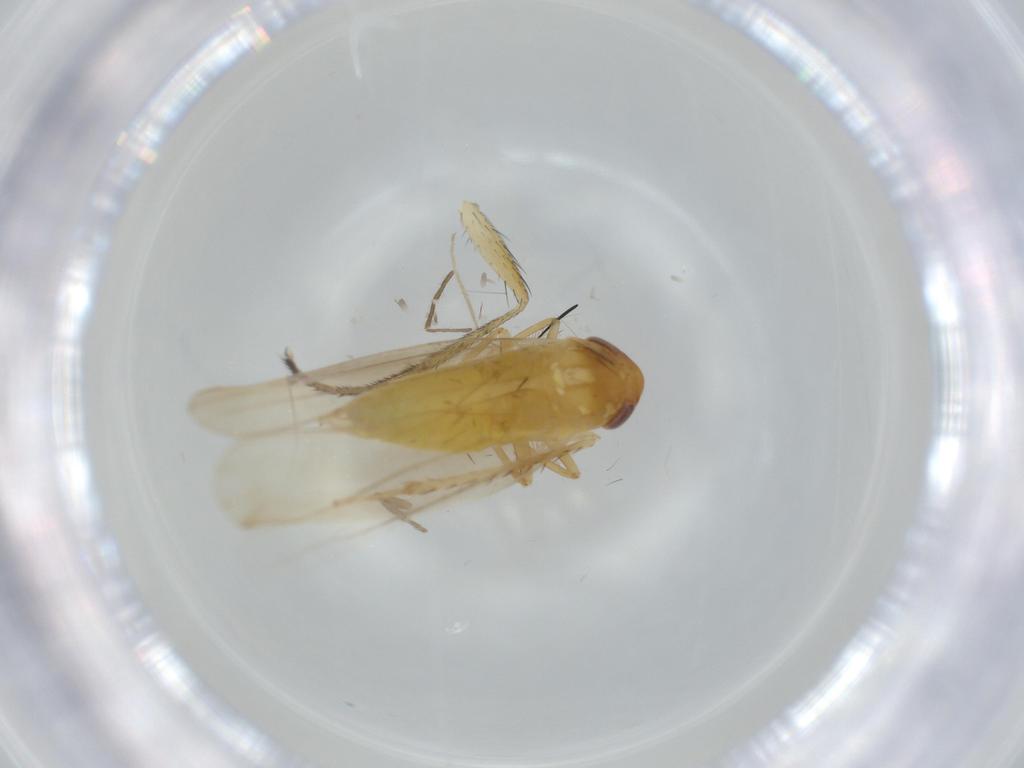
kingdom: Animalia
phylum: Arthropoda
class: Insecta
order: Hemiptera
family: Cicadellidae
